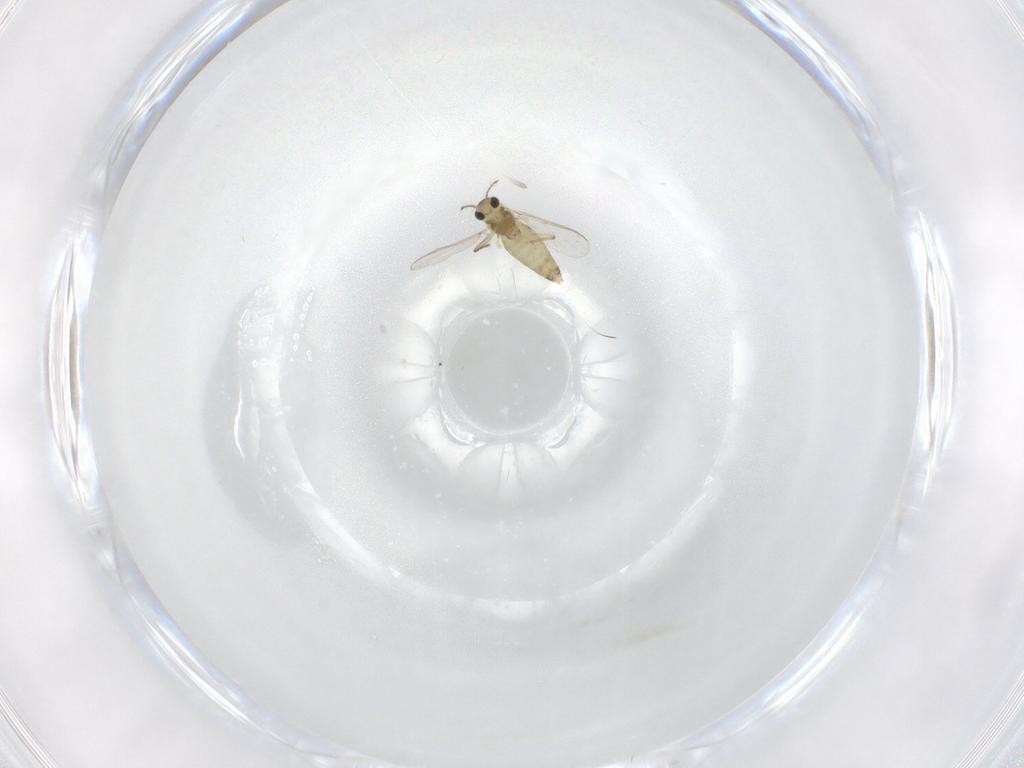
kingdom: Animalia
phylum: Arthropoda
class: Insecta
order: Diptera
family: Chironomidae
